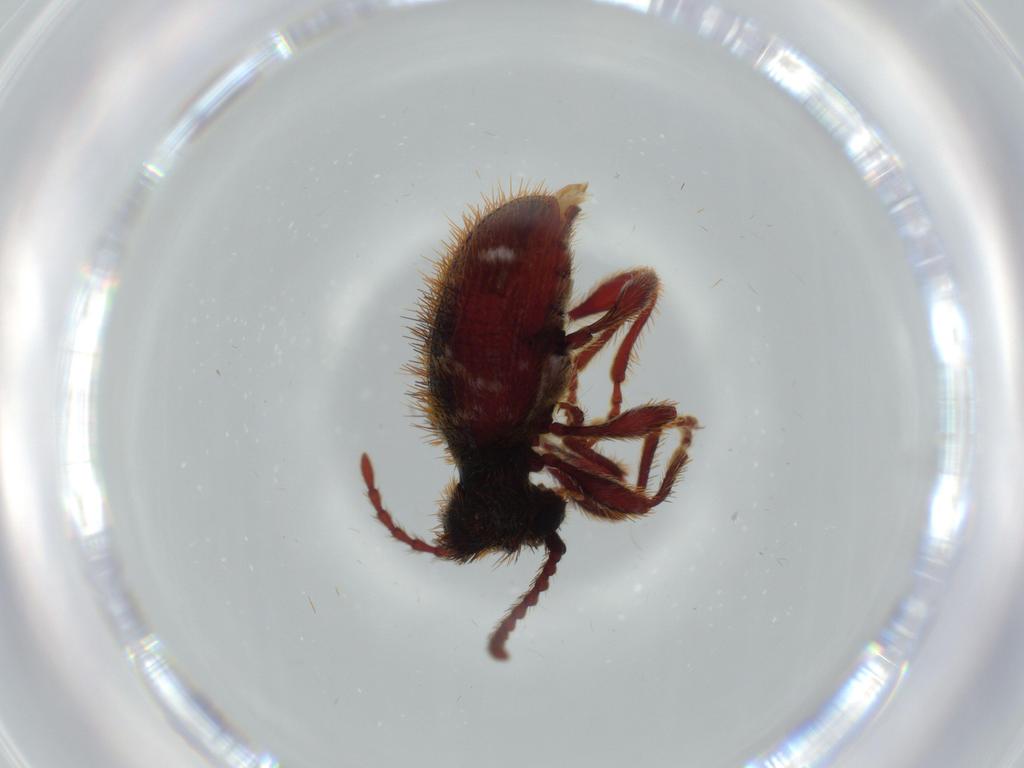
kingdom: Animalia
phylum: Arthropoda
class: Insecta
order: Coleoptera
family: Ptinidae
